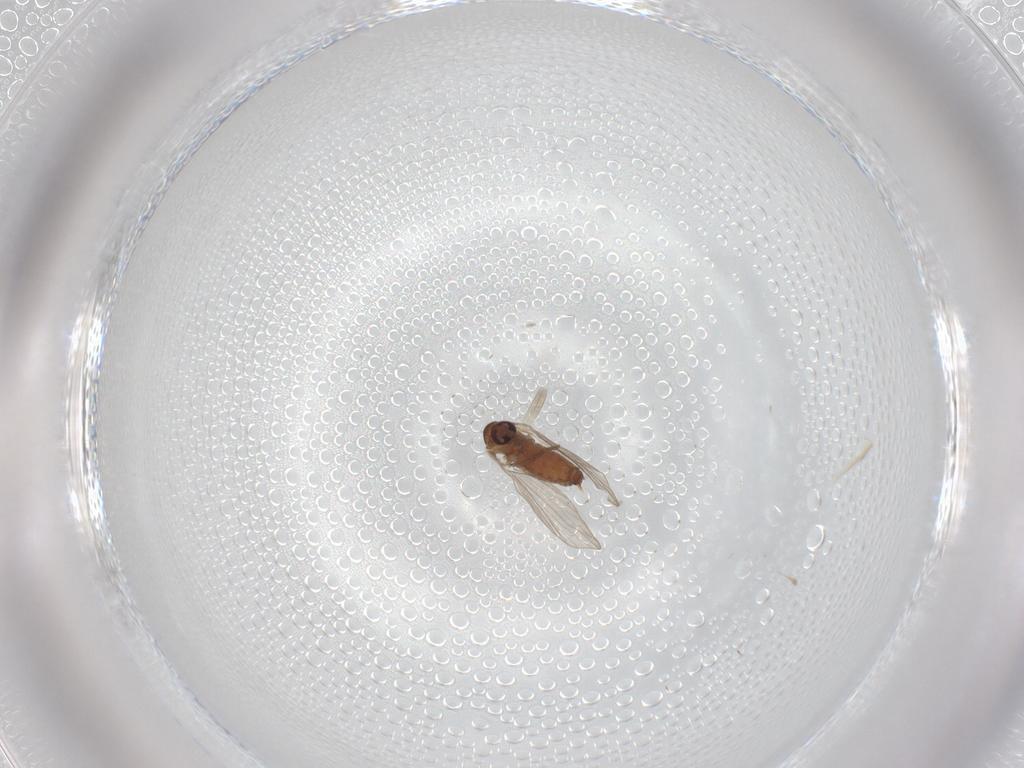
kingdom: Animalia
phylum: Arthropoda
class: Insecta
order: Diptera
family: Psychodidae
